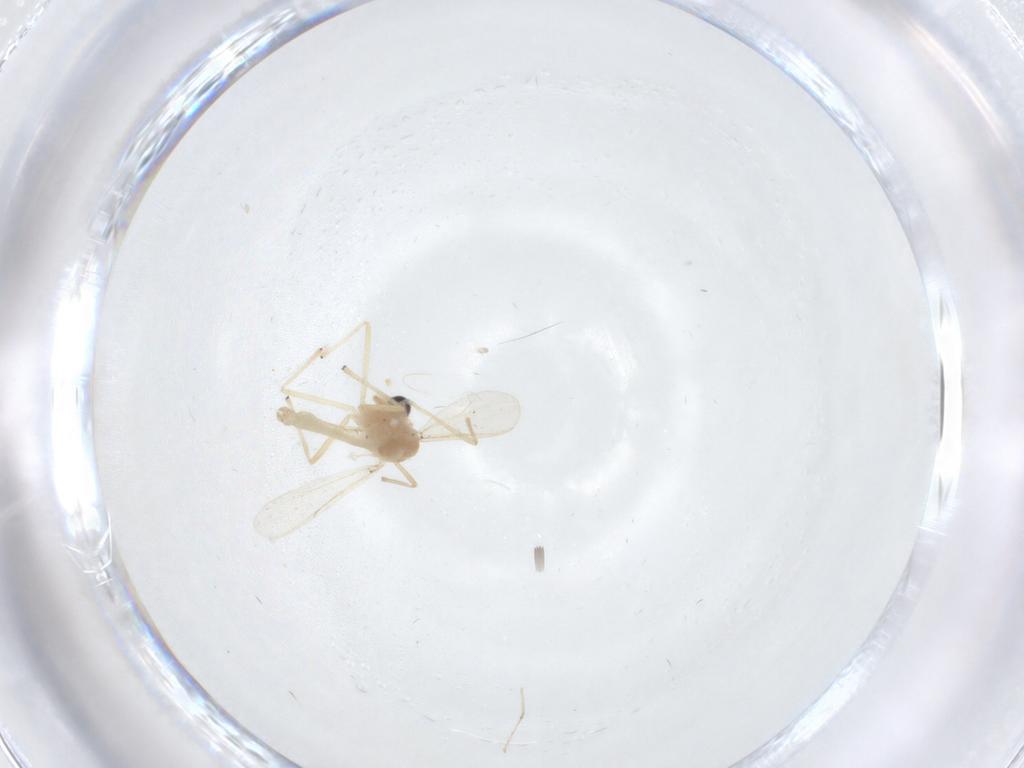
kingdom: Animalia
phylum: Arthropoda
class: Insecta
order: Diptera
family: Chironomidae
